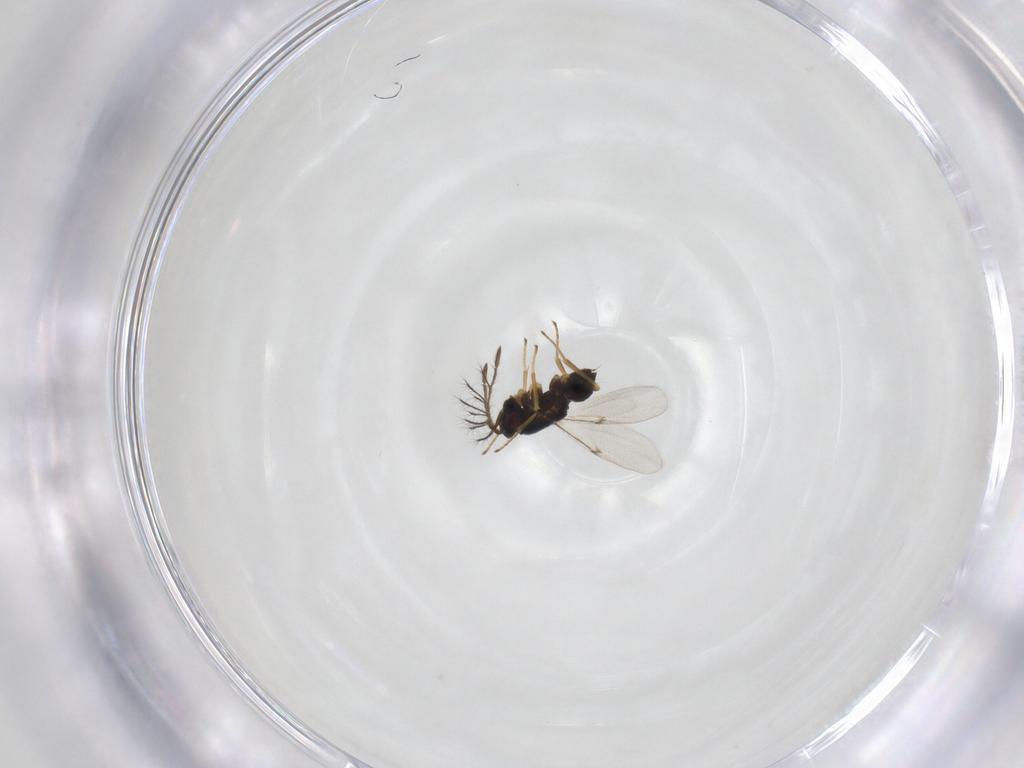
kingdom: Animalia
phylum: Arthropoda
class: Insecta
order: Hymenoptera
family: Encyrtidae
